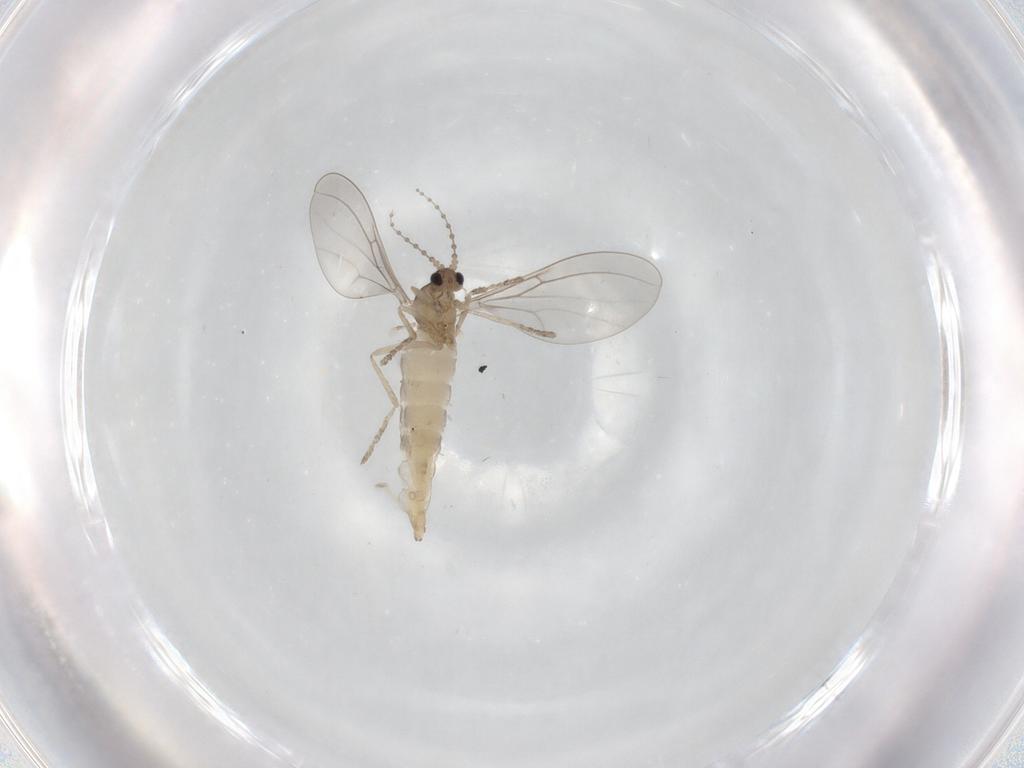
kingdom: Animalia
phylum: Arthropoda
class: Insecta
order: Diptera
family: Cecidomyiidae
